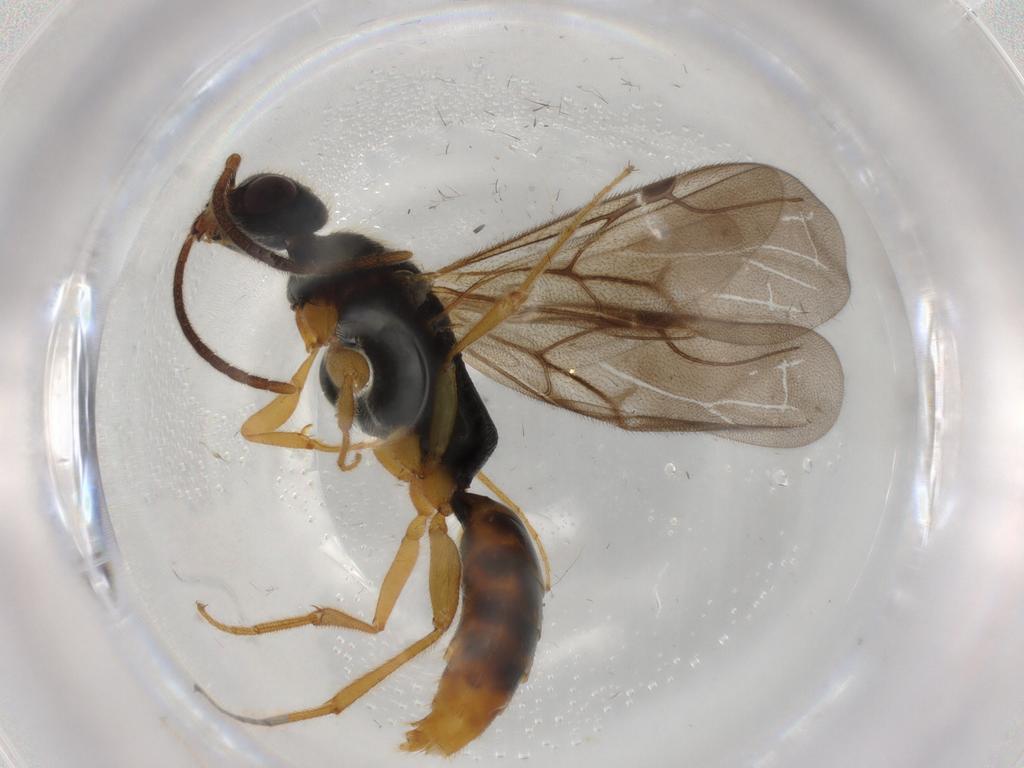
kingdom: Animalia
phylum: Arthropoda
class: Insecta
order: Hymenoptera
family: Bethylidae
